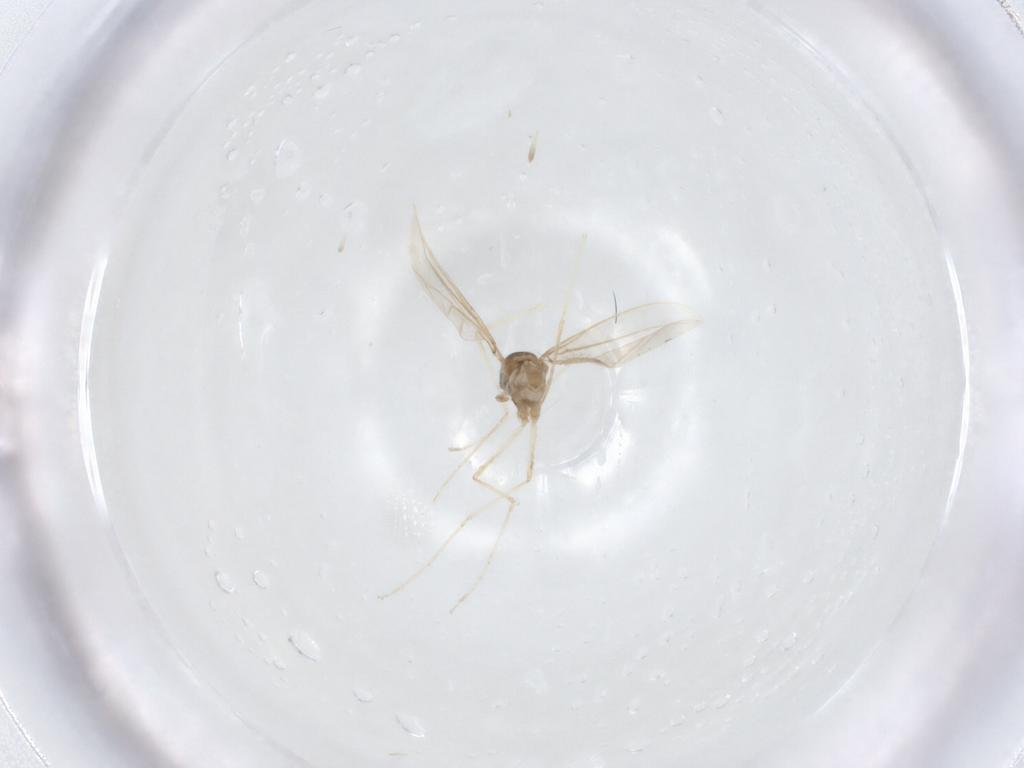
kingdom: Animalia
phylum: Arthropoda
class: Insecta
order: Diptera
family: Cecidomyiidae
